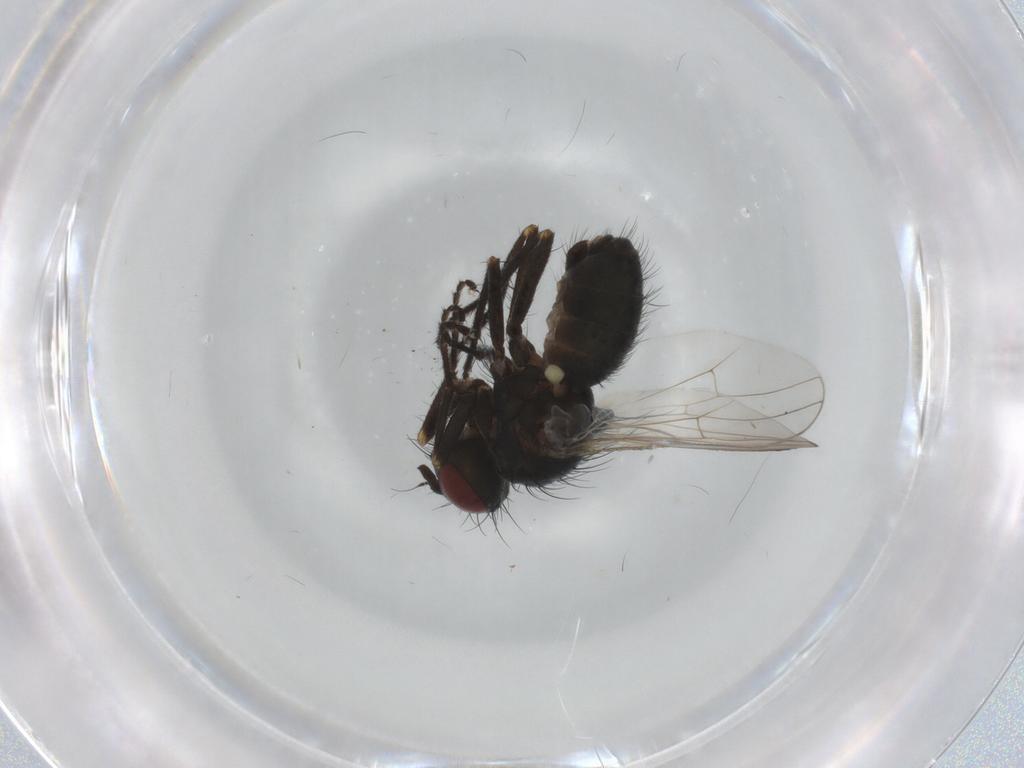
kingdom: Animalia
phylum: Arthropoda
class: Insecta
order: Diptera
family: Muscidae
